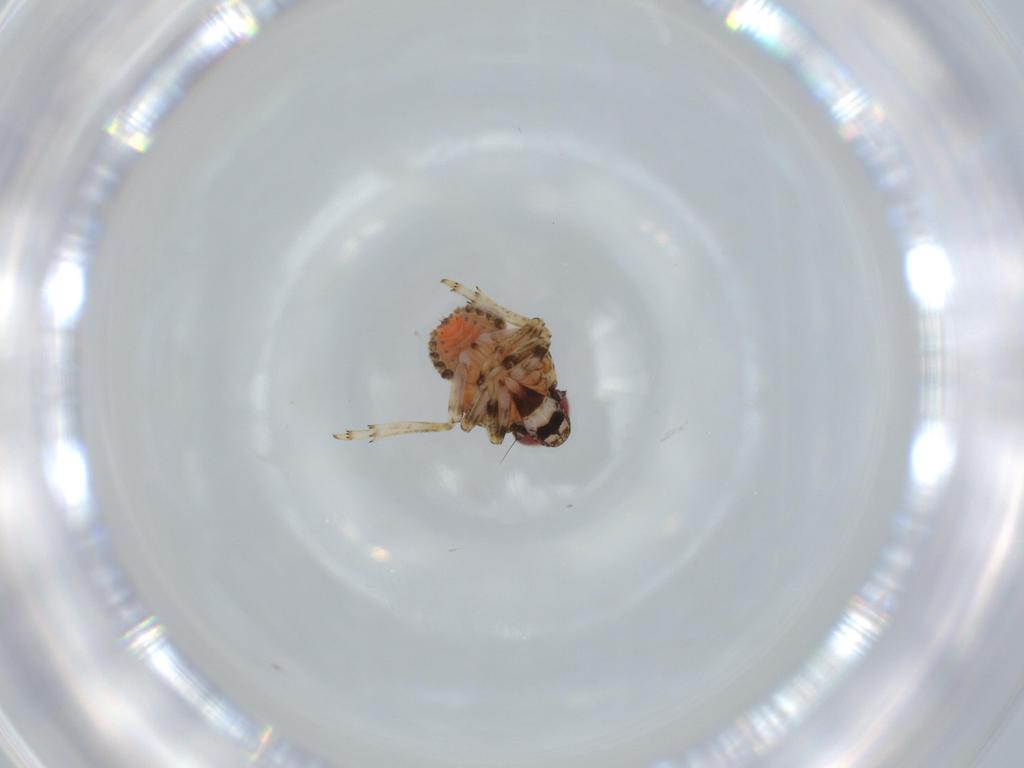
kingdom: Animalia
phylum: Arthropoda
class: Insecta
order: Hemiptera
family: Issidae
